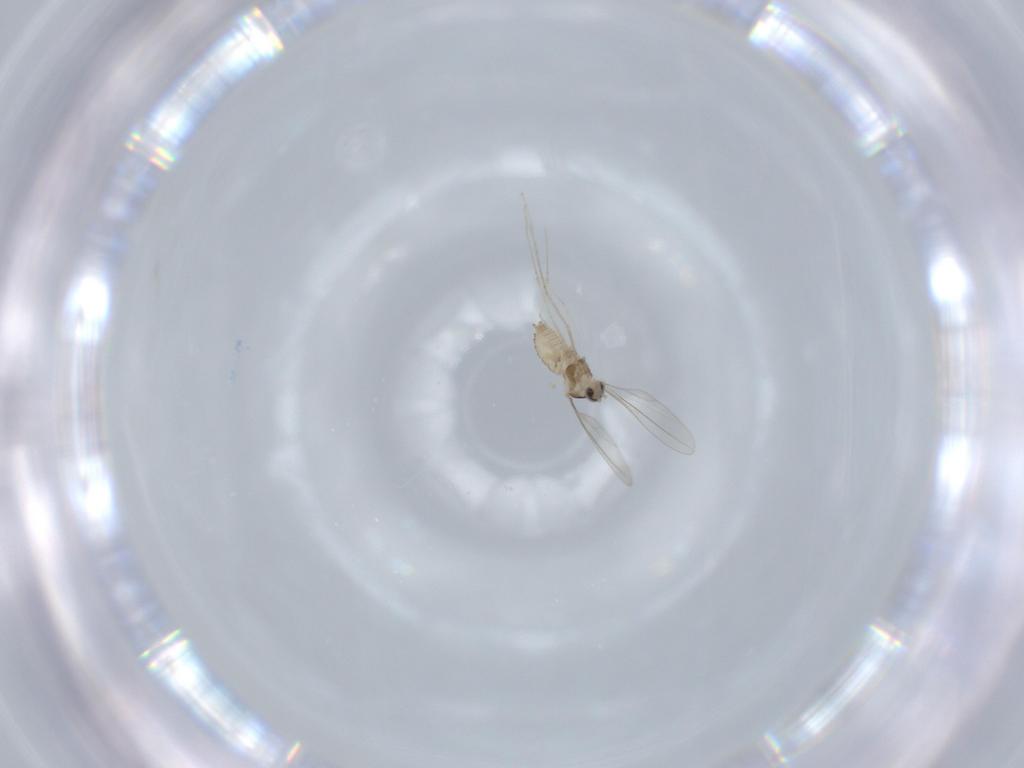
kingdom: Animalia
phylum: Arthropoda
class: Insecta
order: Diptera
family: Cecidomyiidae
